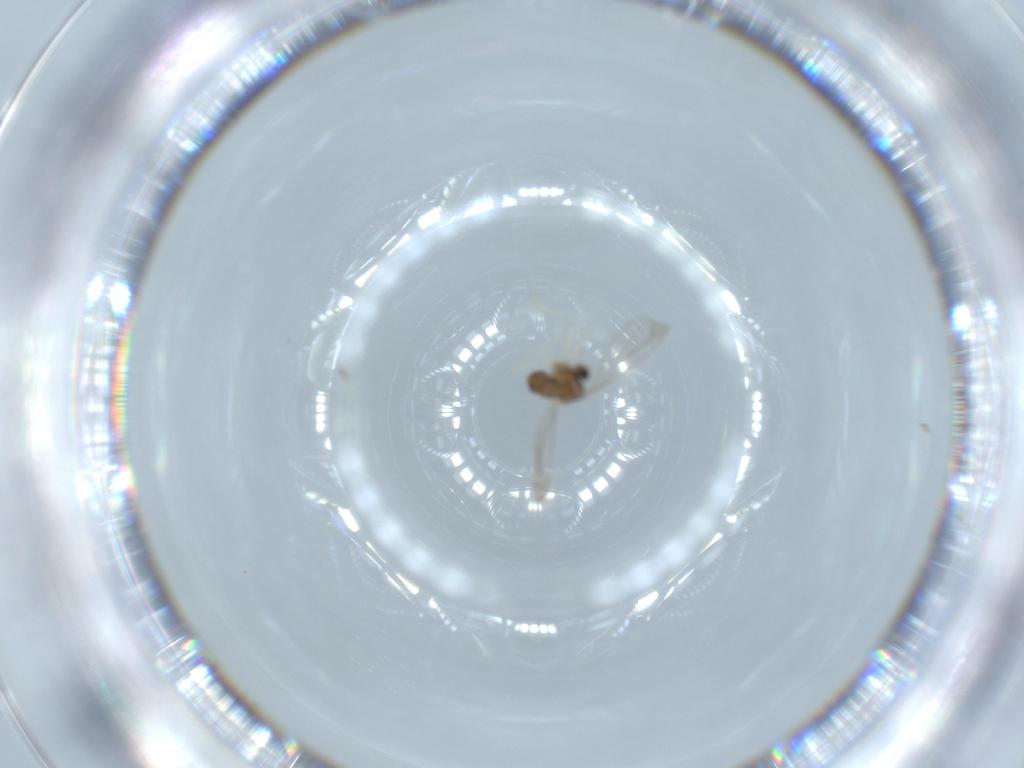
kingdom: Animalia
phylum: Arthropoda
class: Insecta
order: Diptera
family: Cecidomyiidae
